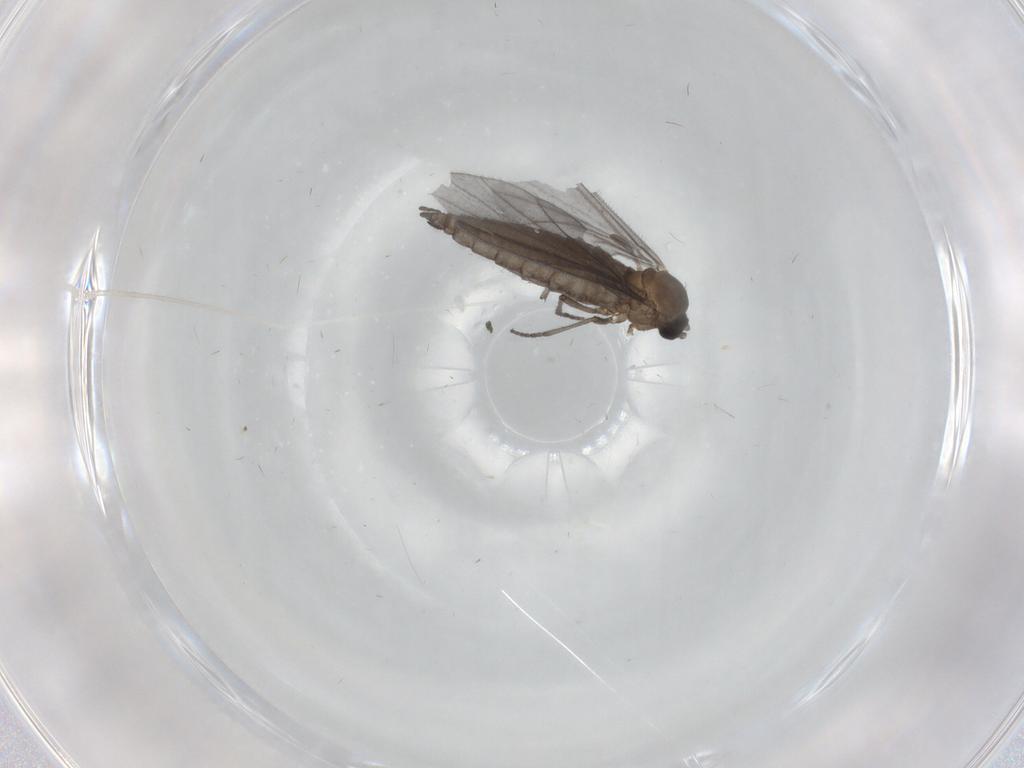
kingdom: Animalia
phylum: Arthropoda
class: Insecta
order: Diptera
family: Sciaridae
